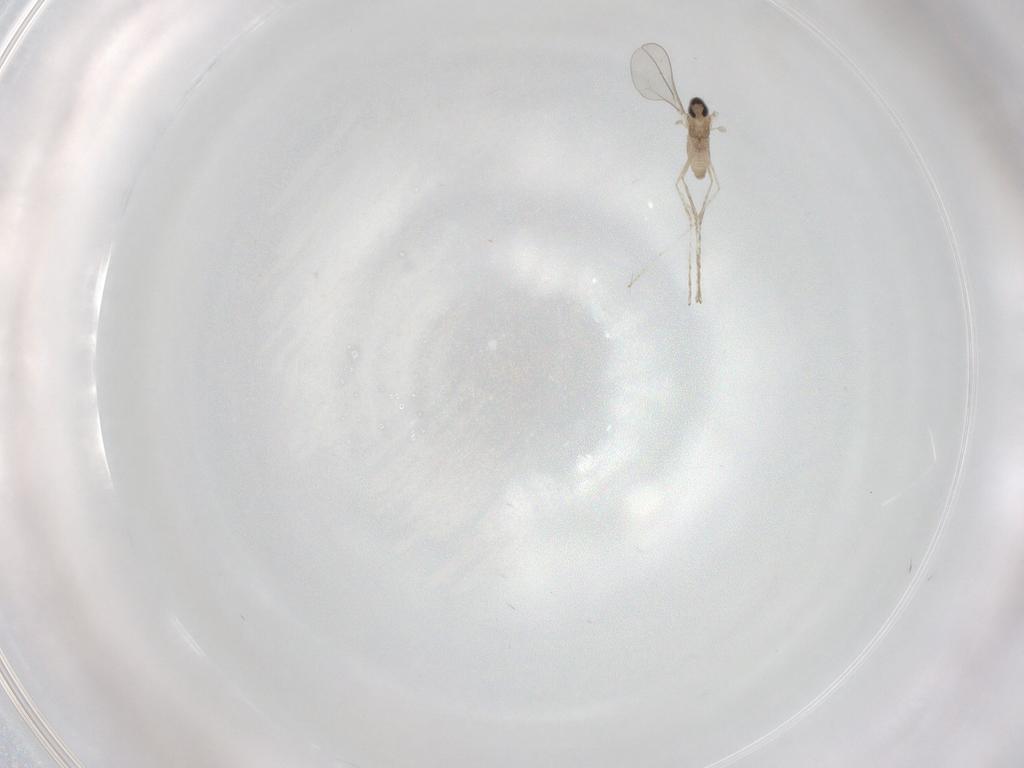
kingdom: Animalia
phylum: Arthropoda
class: Insecta
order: Diptera
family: Cecidomyiidae
